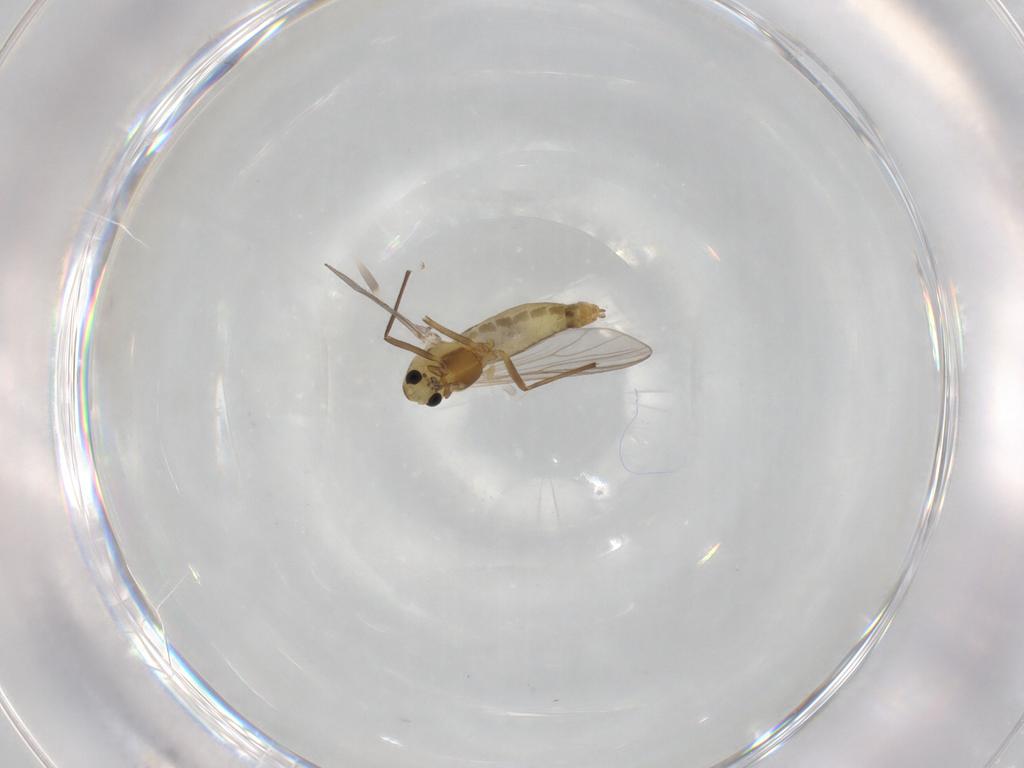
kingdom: Animalia
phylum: Arthropoda
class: Insecta
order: Diptera
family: Chironomidae
